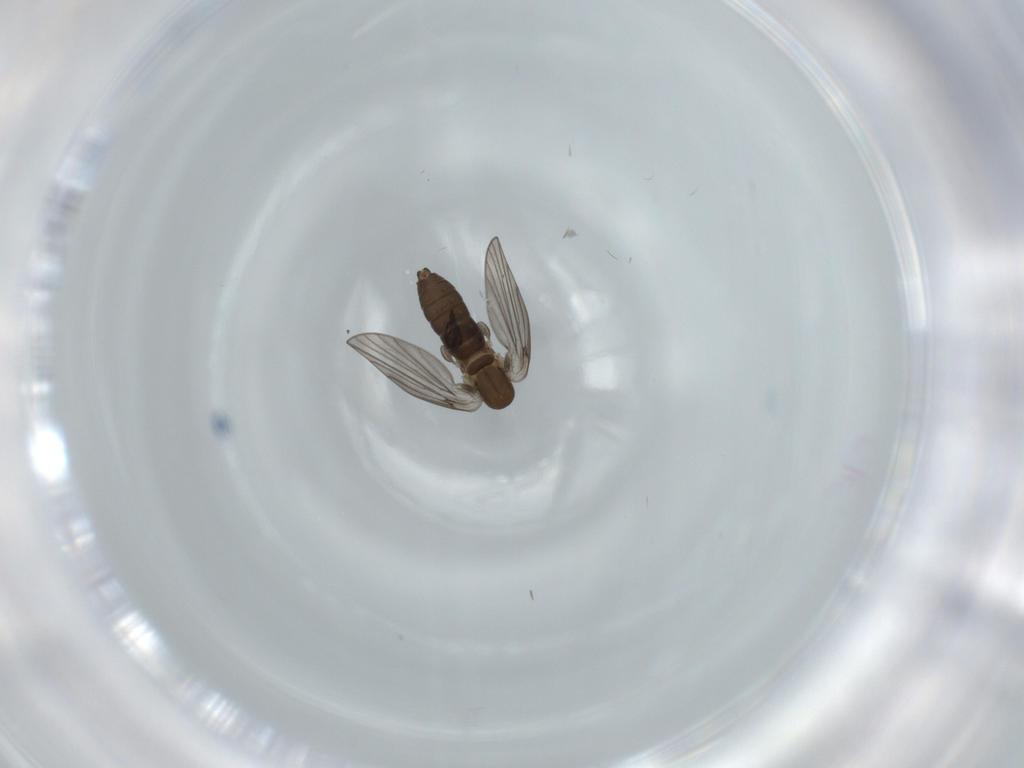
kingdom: Animalia
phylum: Arthropoda
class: Insecta
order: Diptera
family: Psychodidae
